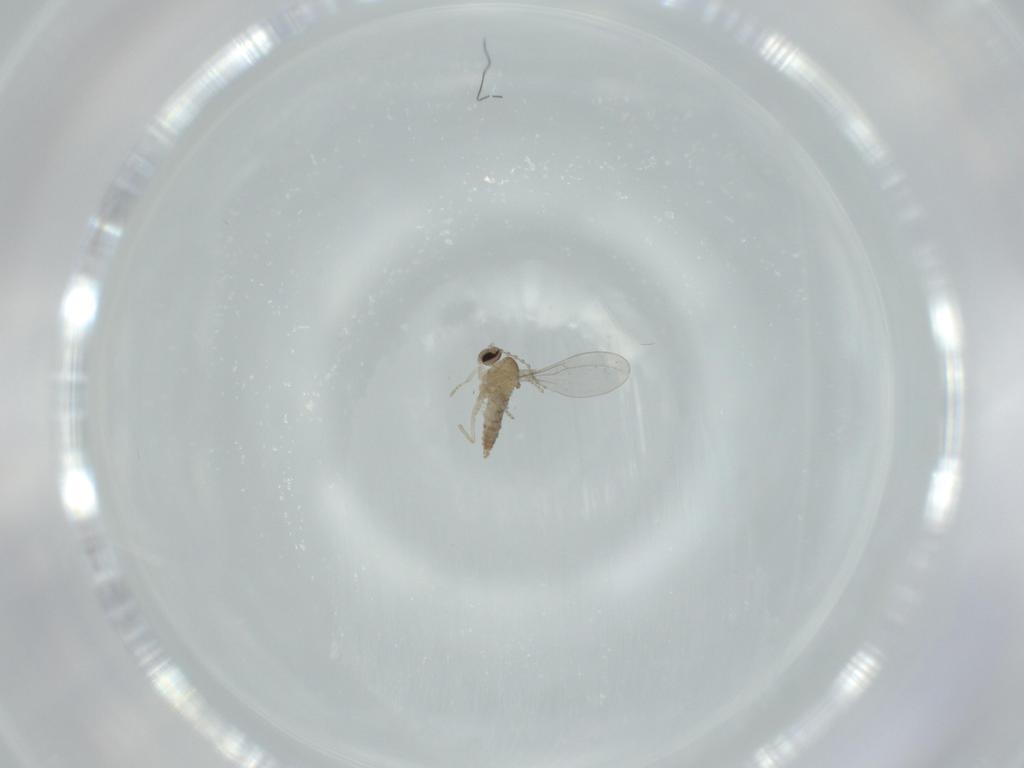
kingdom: Animalia
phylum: Arthropoda
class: Insecta
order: Diptera
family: Cecidomyiidae
